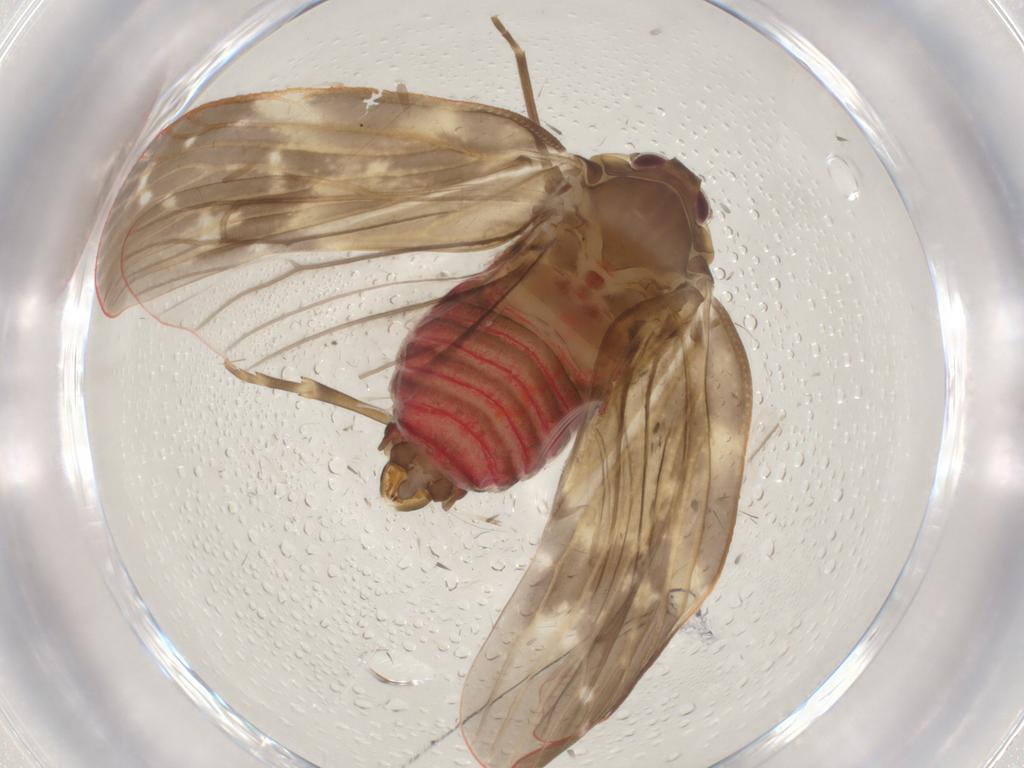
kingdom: Animalia
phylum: Arthropoda
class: Insecta
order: Hemiptera
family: Achilidae
